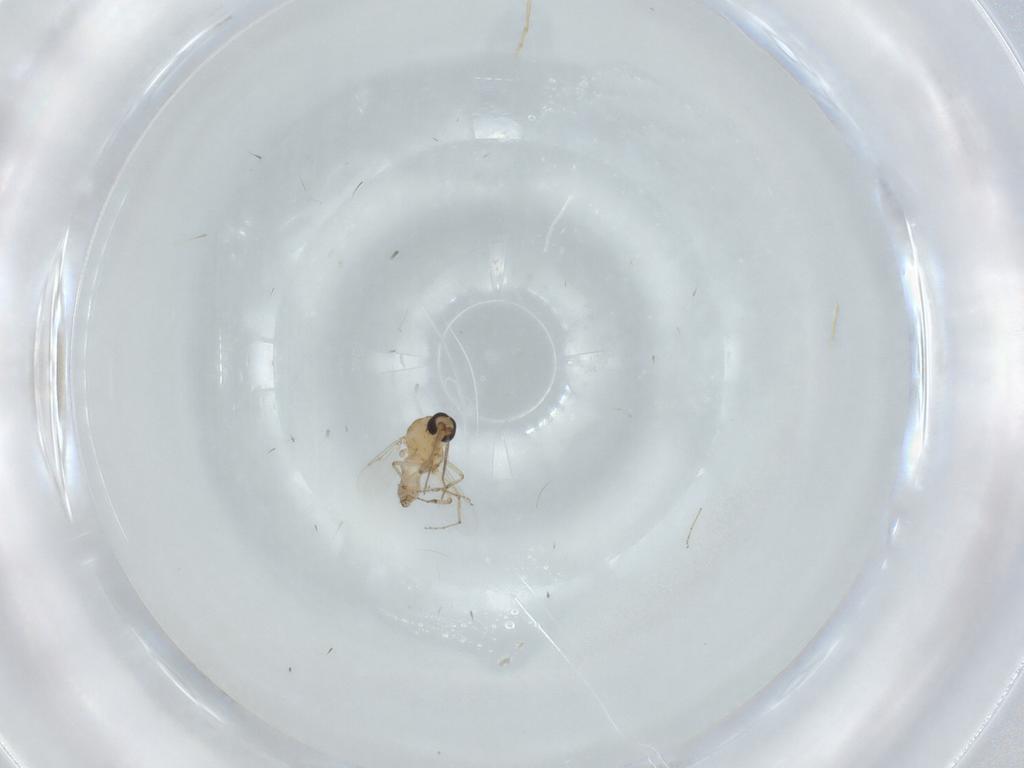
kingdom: Animalia
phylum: Arthropoda
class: Insecta
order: Diptera
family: Ceratopogonidae
